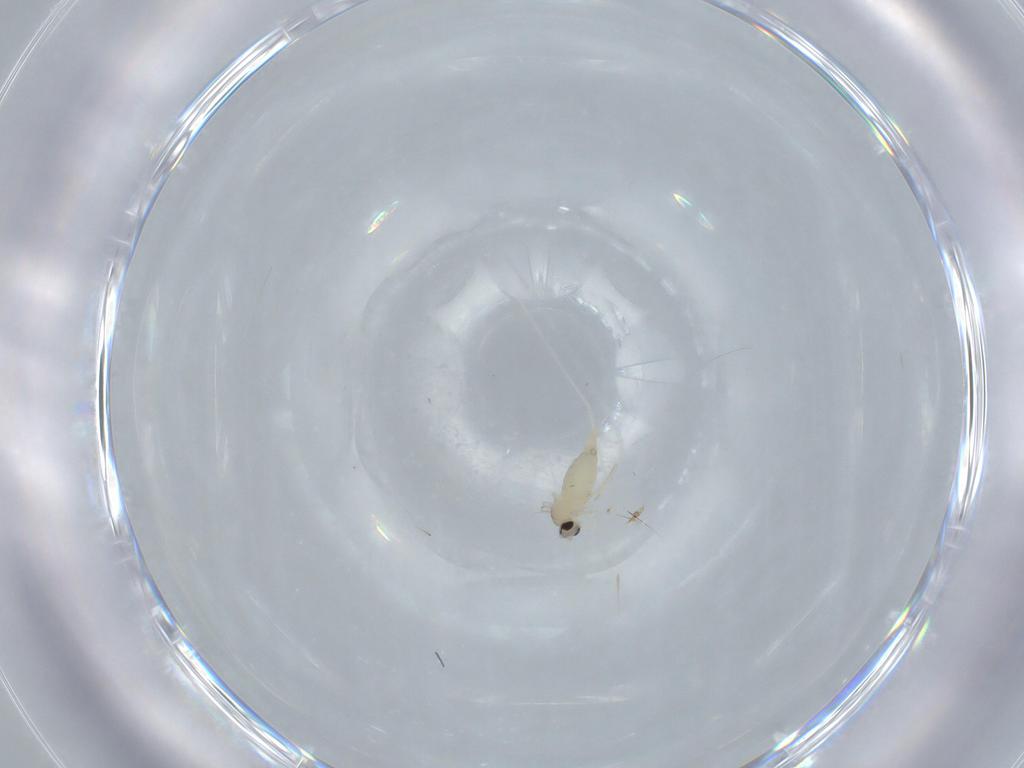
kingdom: Animalia
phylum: Arthropoda
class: Insecta
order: Diptera
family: Cecidomyiidae
